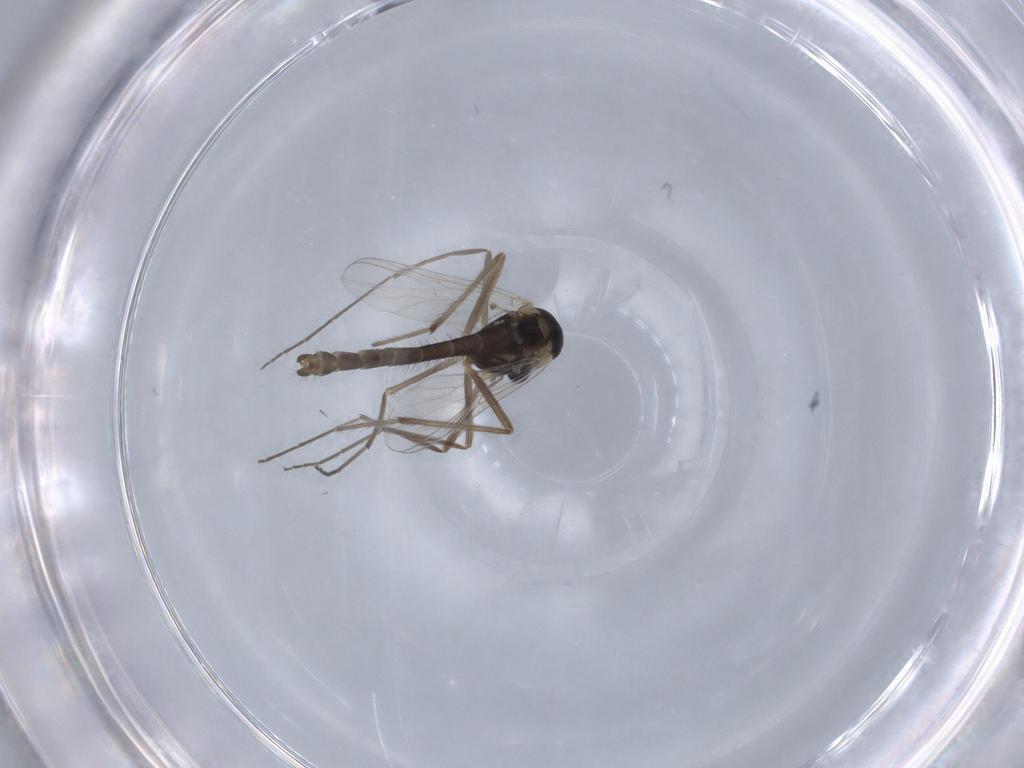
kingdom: Animalia
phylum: Arthropoda
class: Insecta
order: Diptera
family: Chironomidae
